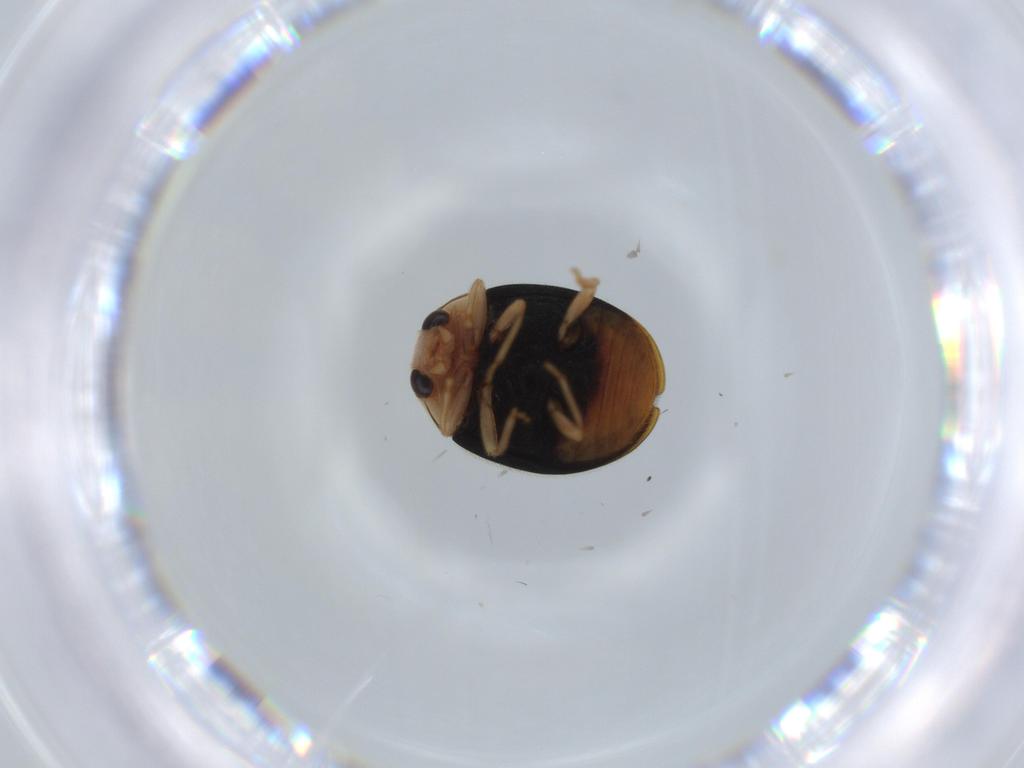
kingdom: Animalia
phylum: Arthropoda
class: Insecta
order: Coleoptera
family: Coccinellidae
